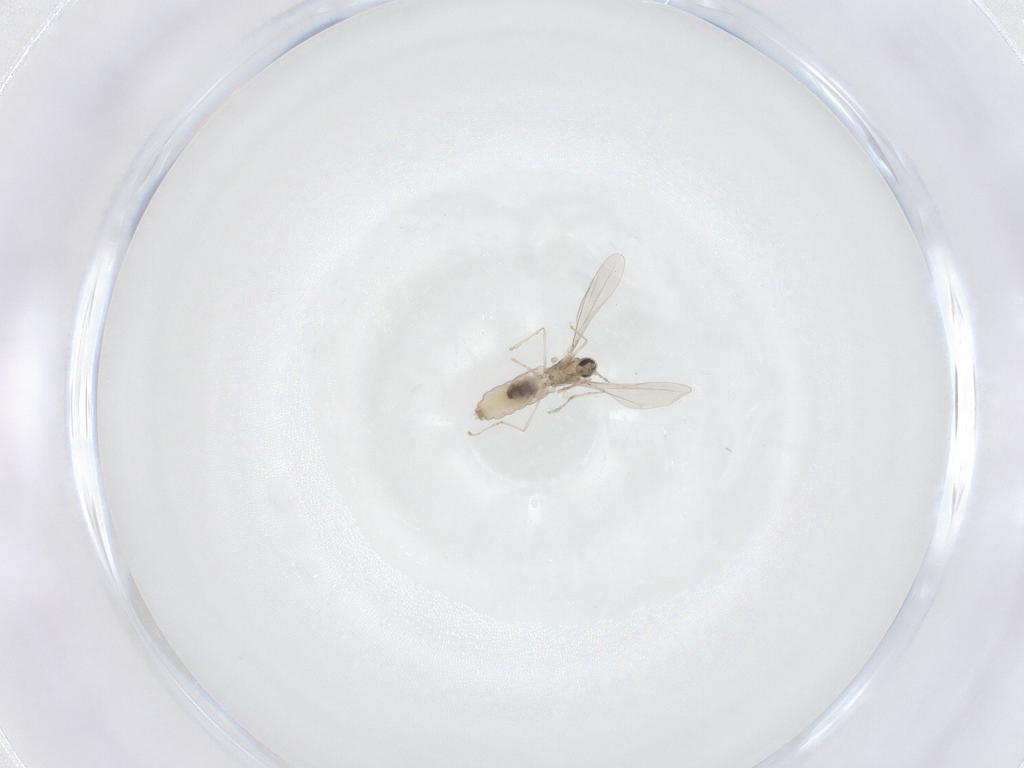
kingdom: Animalia
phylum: Arthropoda
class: Insecta
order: Diptera
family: Cecidomyiidae
